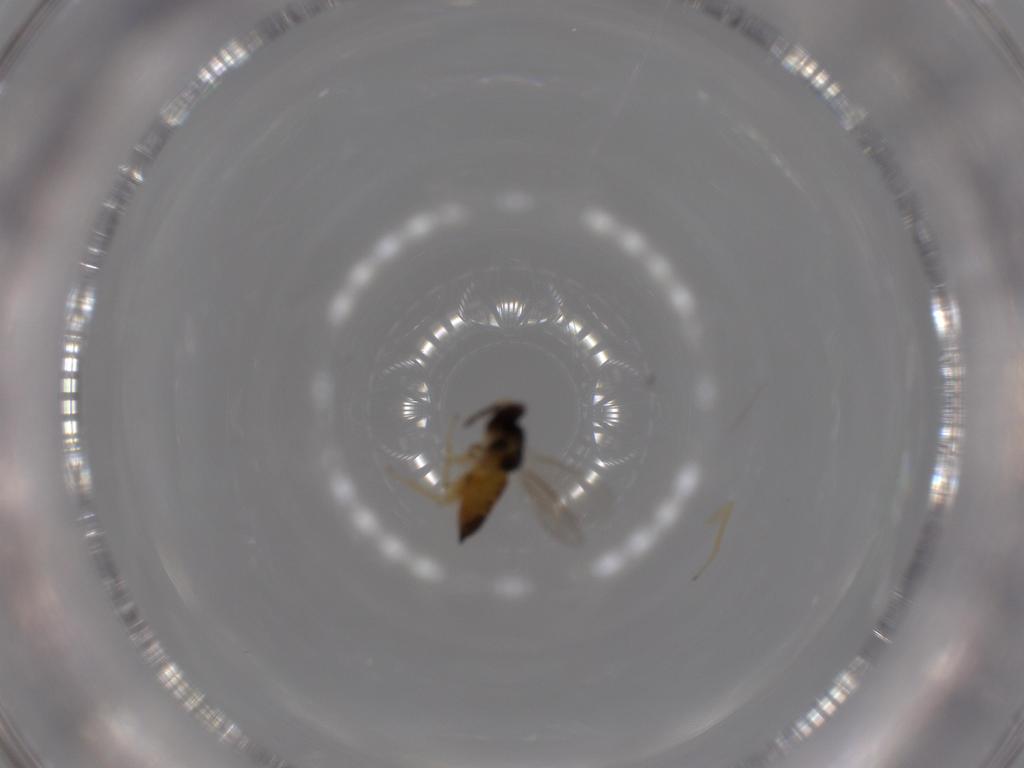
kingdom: Animalia
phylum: Arthropoda
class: Insecta
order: Hymenoptera
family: Eulophidae
